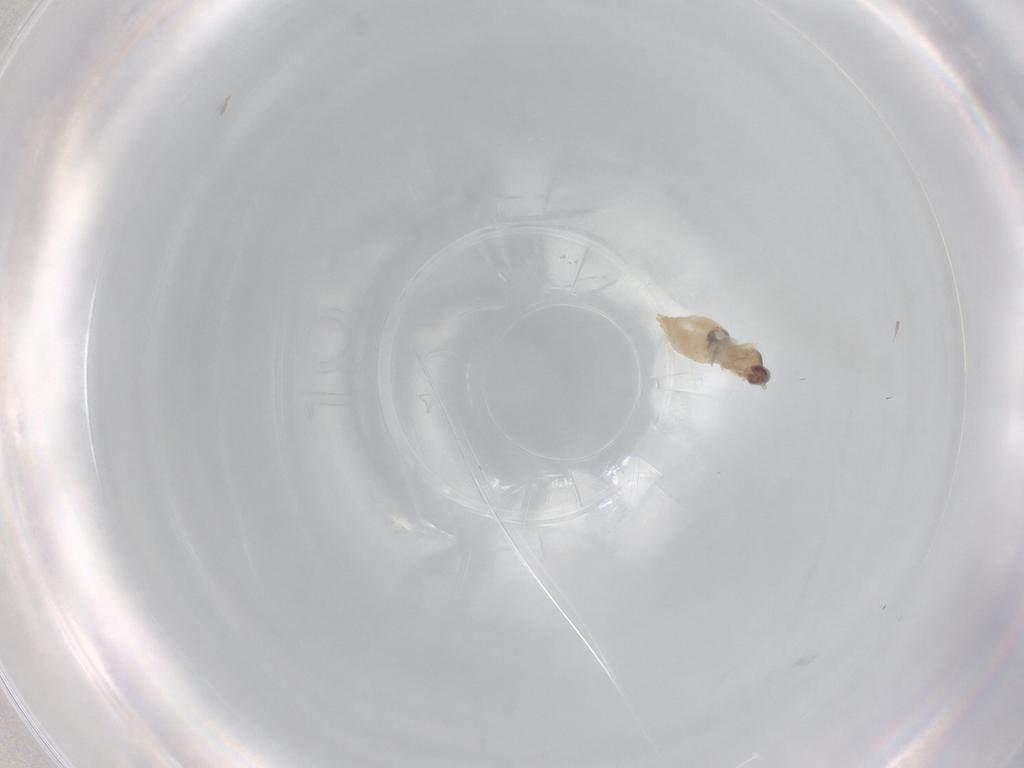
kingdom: Animalia
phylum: Arthropoda
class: Insecta
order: Diptera
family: Cecidomyiidae
